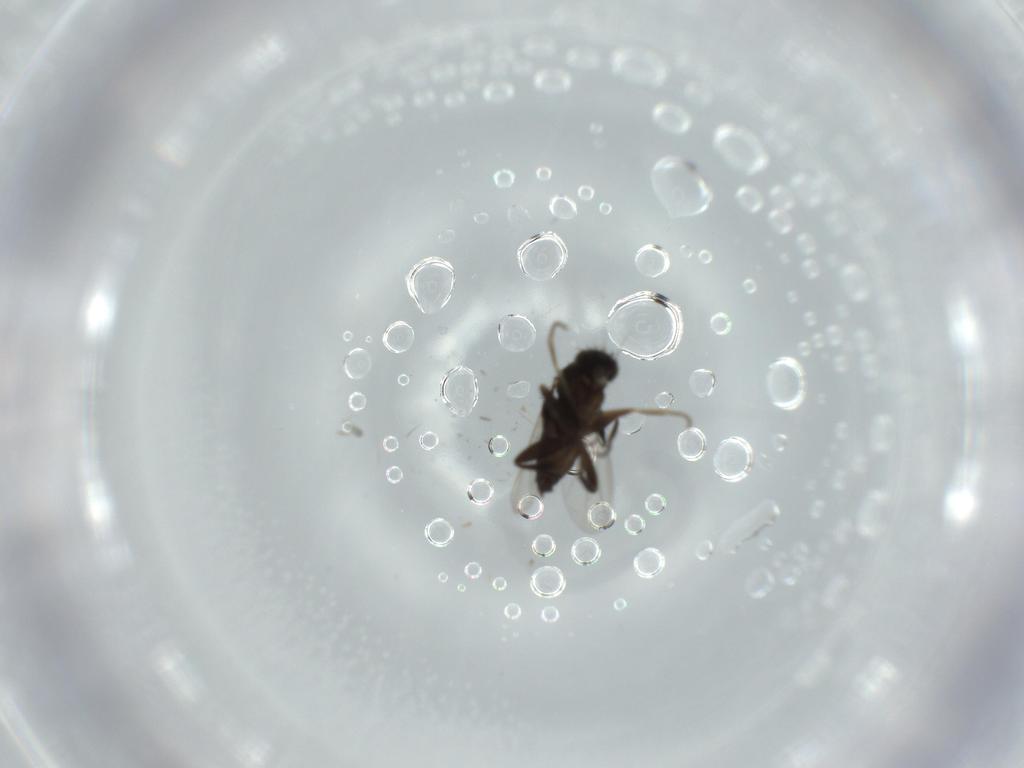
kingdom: Animalia
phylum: Arthropoda
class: Insecta
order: Diptera
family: Phoridae
